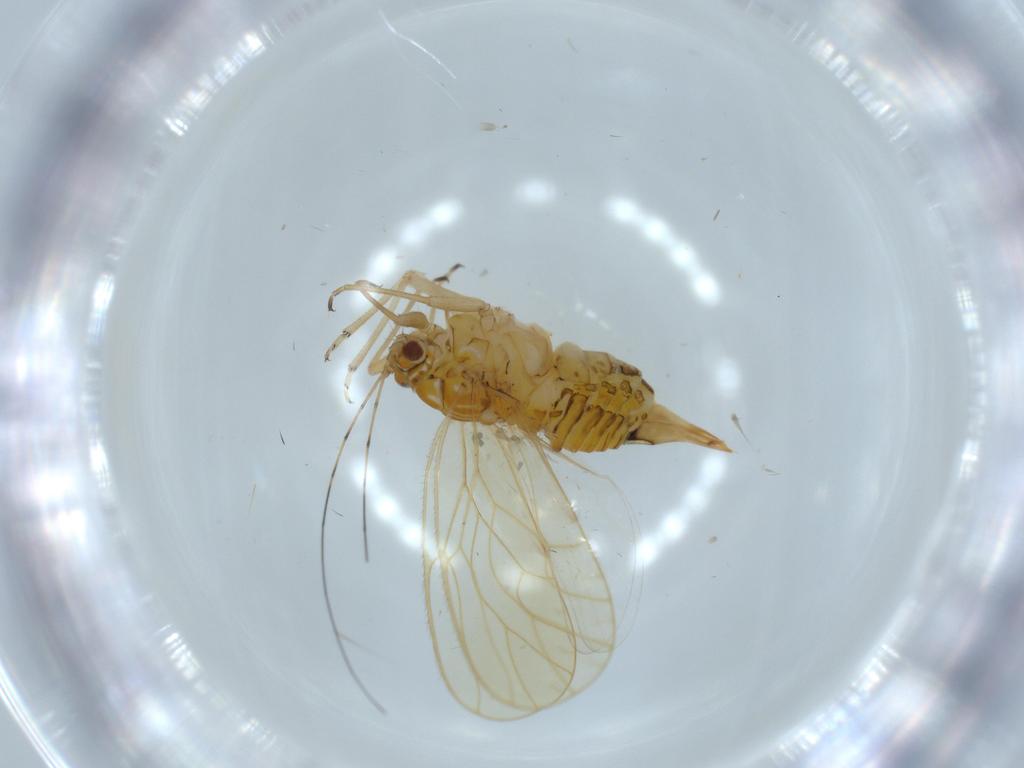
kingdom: Animalia
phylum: Arthropoda
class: Insecta
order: Hemiptera
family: Psyllidae
